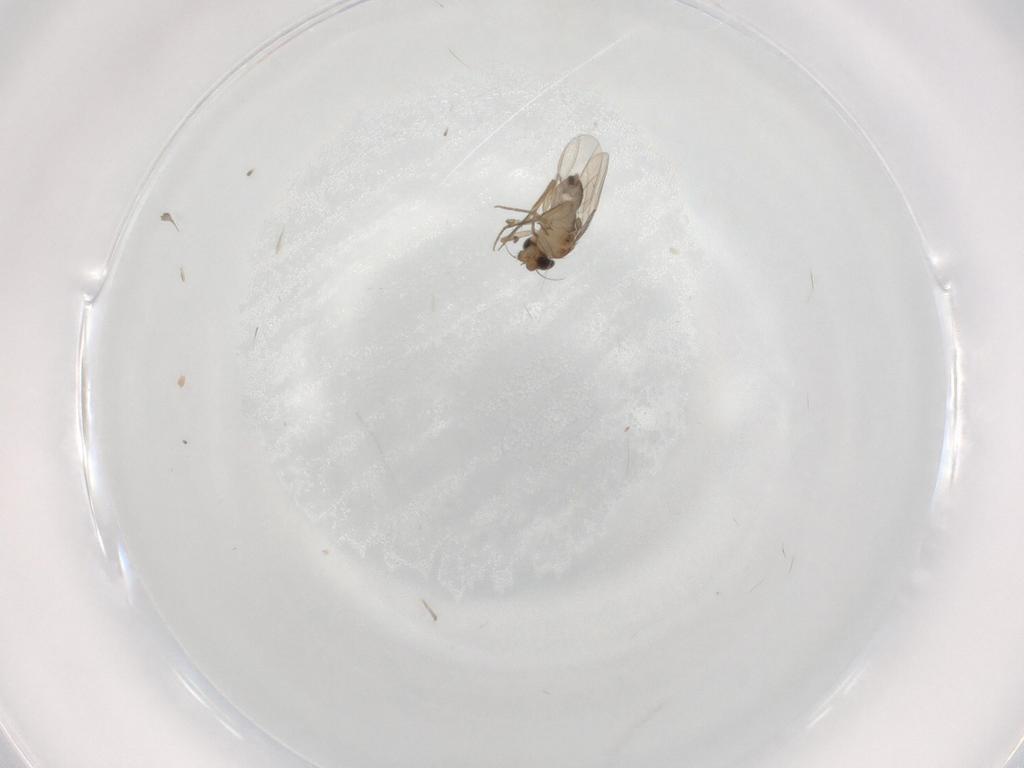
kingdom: Animalia
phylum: Arthropoda
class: Insecta
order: Diptera
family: Phoridae
